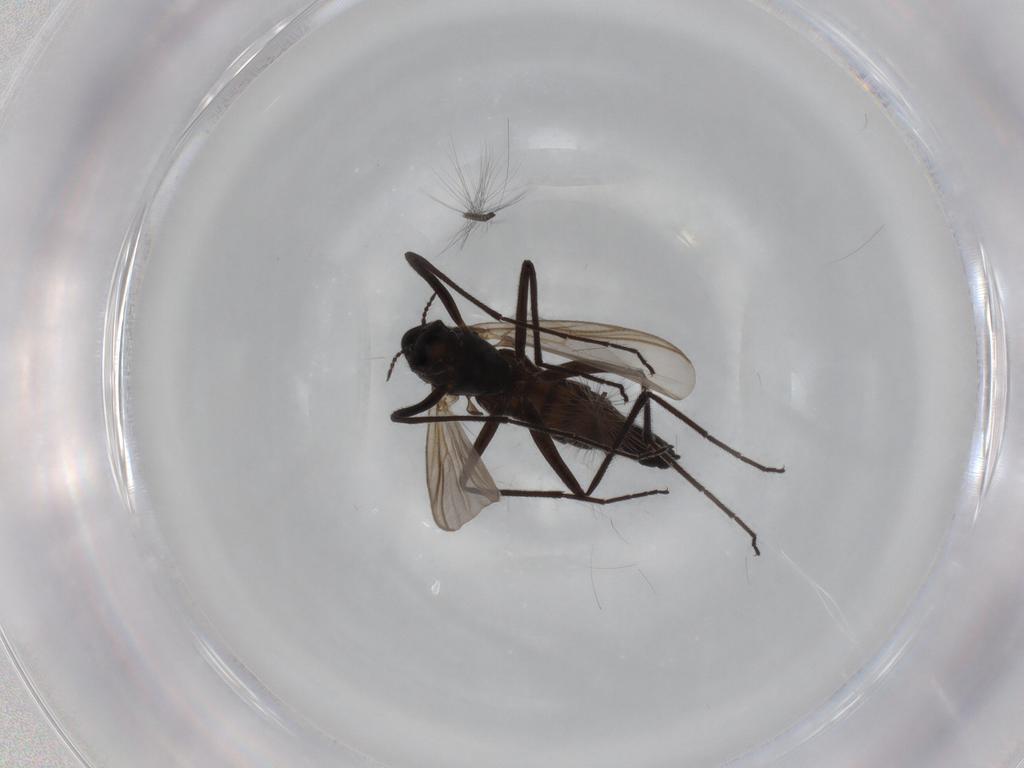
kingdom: Animalia
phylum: Arthropoda
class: Insecta
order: Diptera
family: Chironomidae
